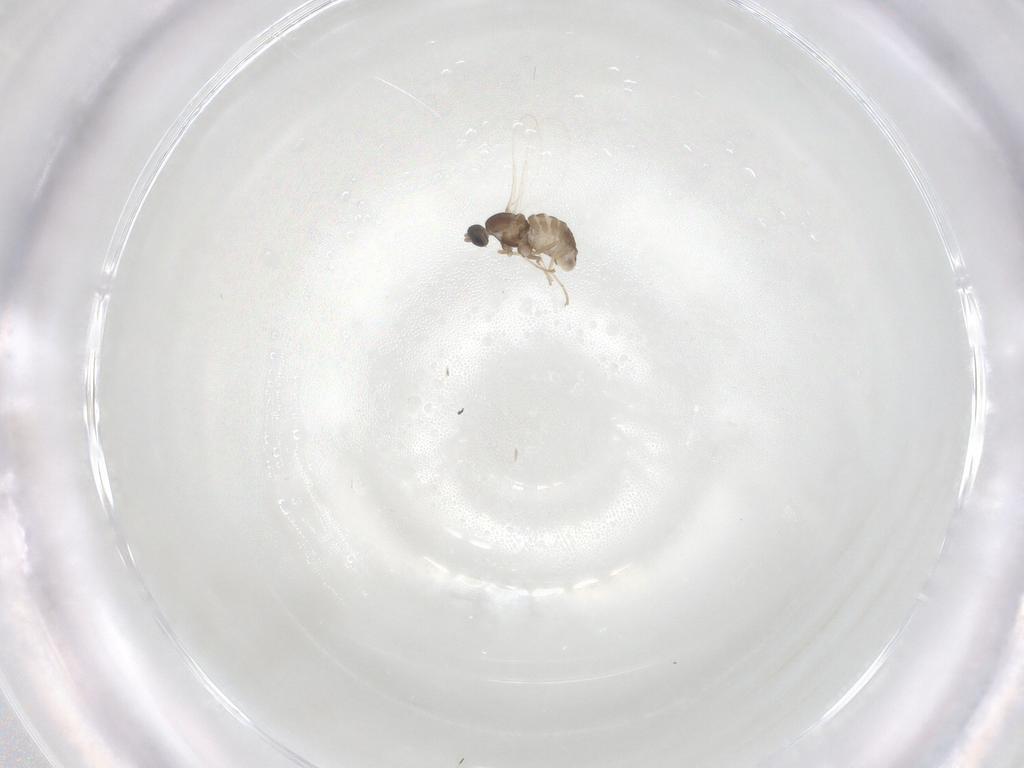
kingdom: Animalia
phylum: Arthropoda
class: Insecta
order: Diptera
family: Cecidomyiidae
